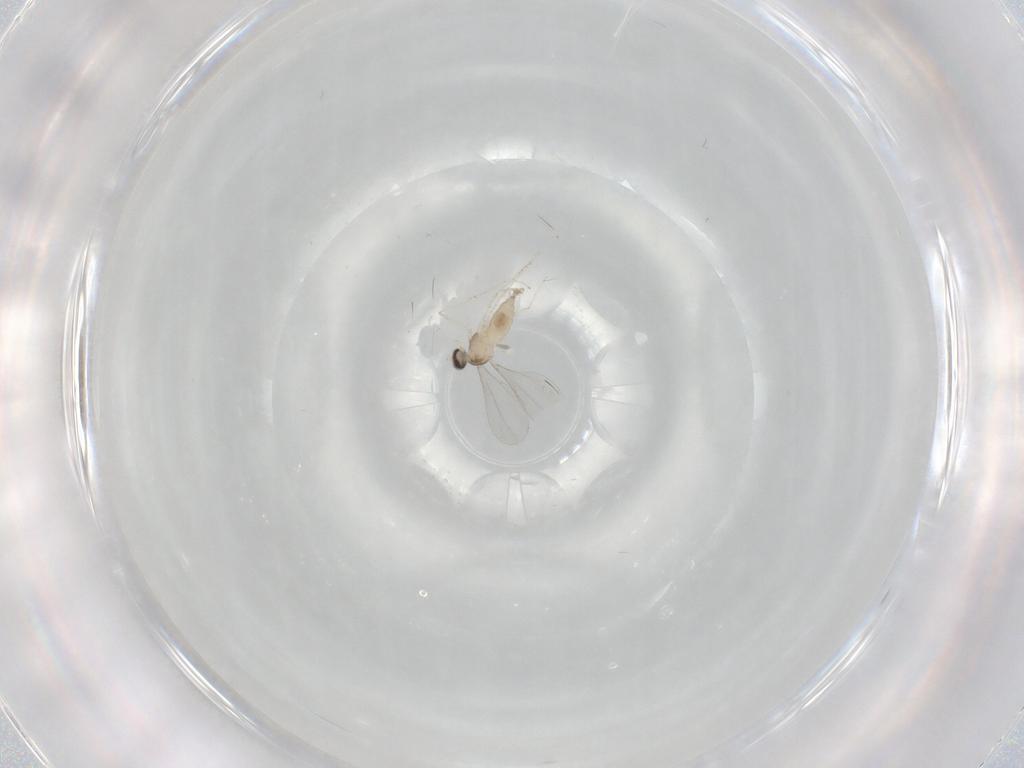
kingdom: Animalia
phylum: Arthropoda
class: Insecta
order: Diptera
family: Cecidomyiidae
